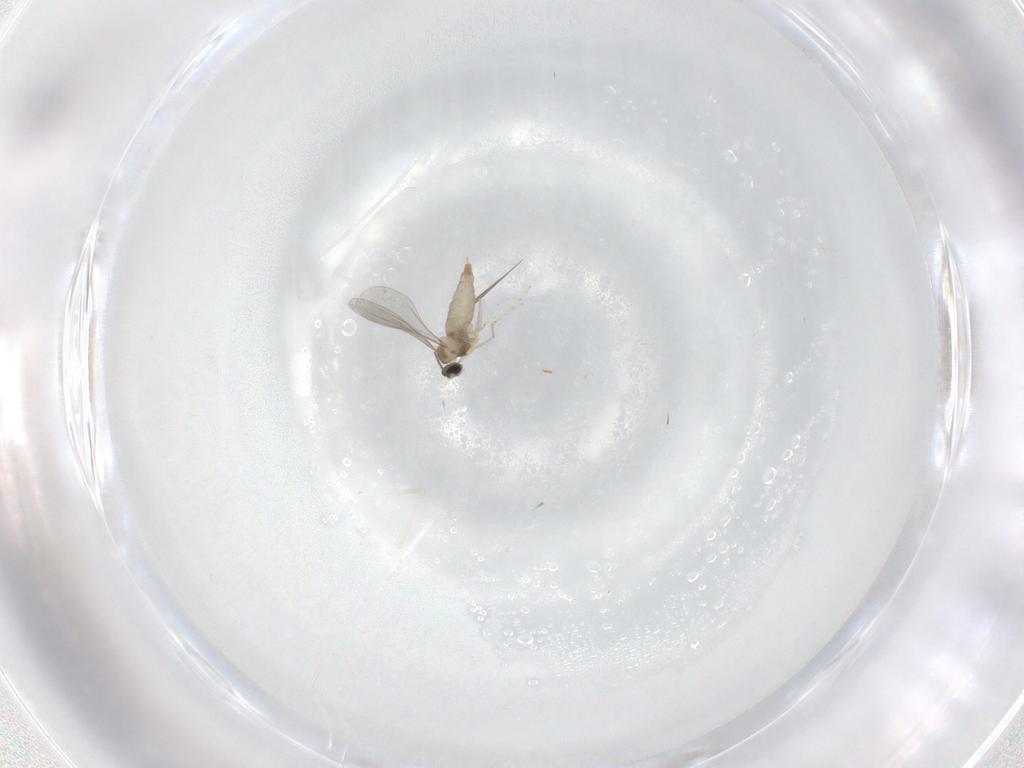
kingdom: Animalia
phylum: Arthropoda
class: Insecta
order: Diptera
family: Cecidomyiidae
